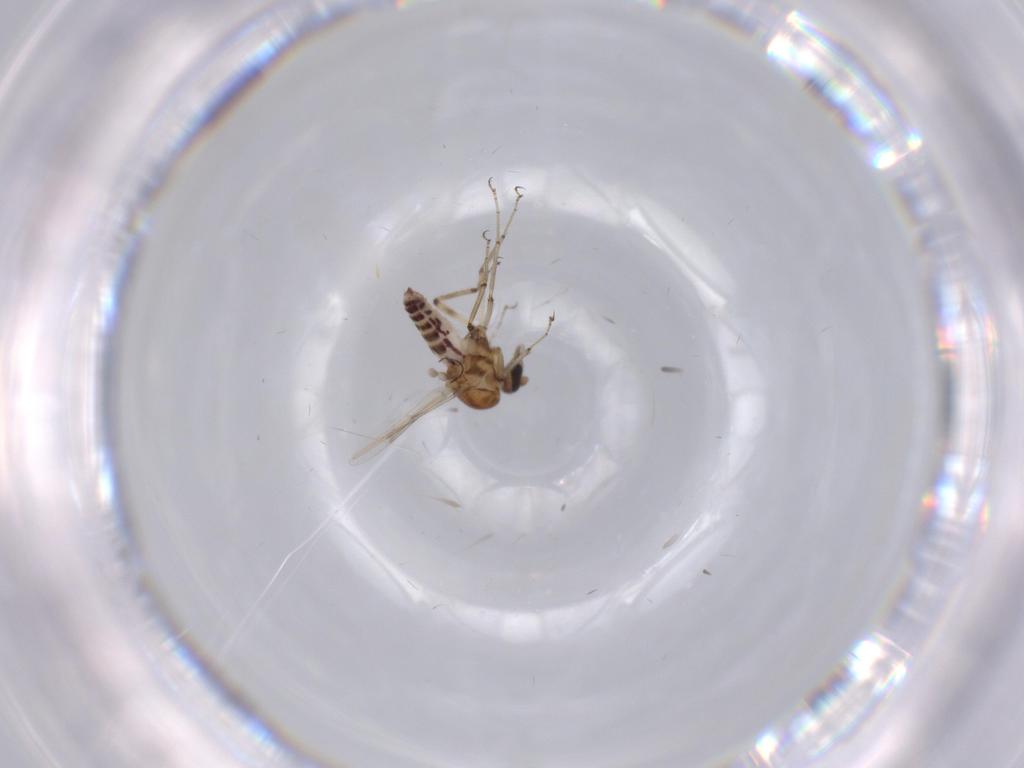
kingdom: Animalia
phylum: Arthropoda
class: Insecta
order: Diptera
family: Ceratopogonidae
